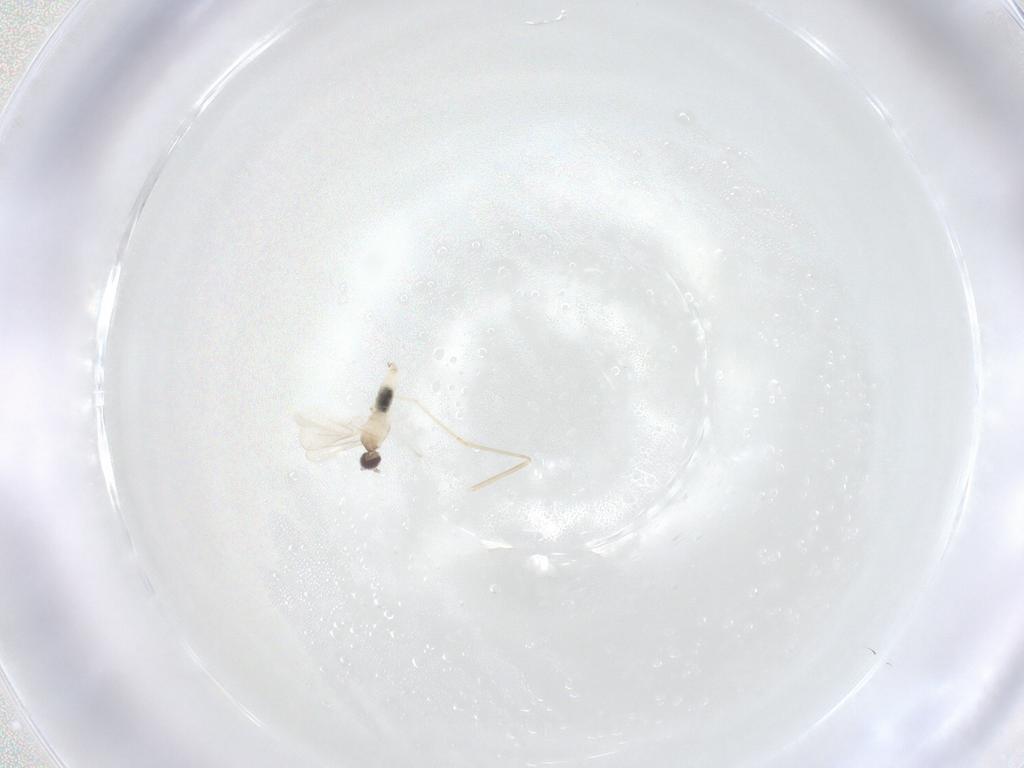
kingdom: Animalia
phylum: Arthropoda
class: Insecta
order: Diptera
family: Cecidomyiidae
